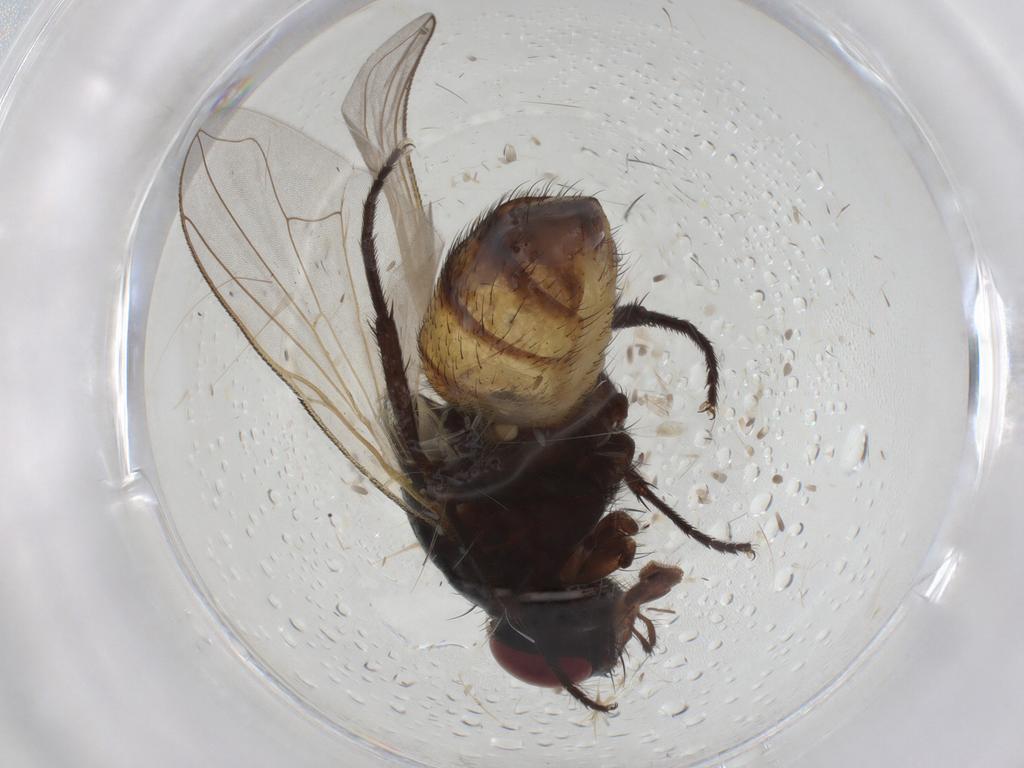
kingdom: Animalia
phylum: Arthropoda
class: Insecta
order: Diptera
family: Muscidae
